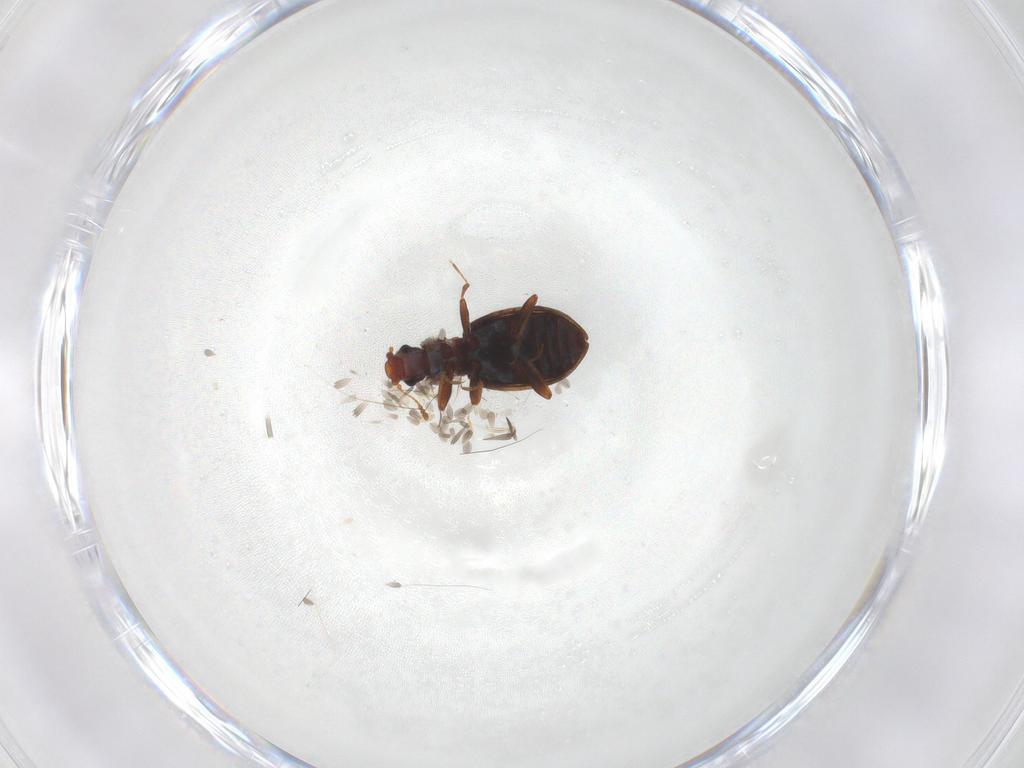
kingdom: Animalia
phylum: Arthropoda
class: Insecta
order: Coleoptera
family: Latridiidae
